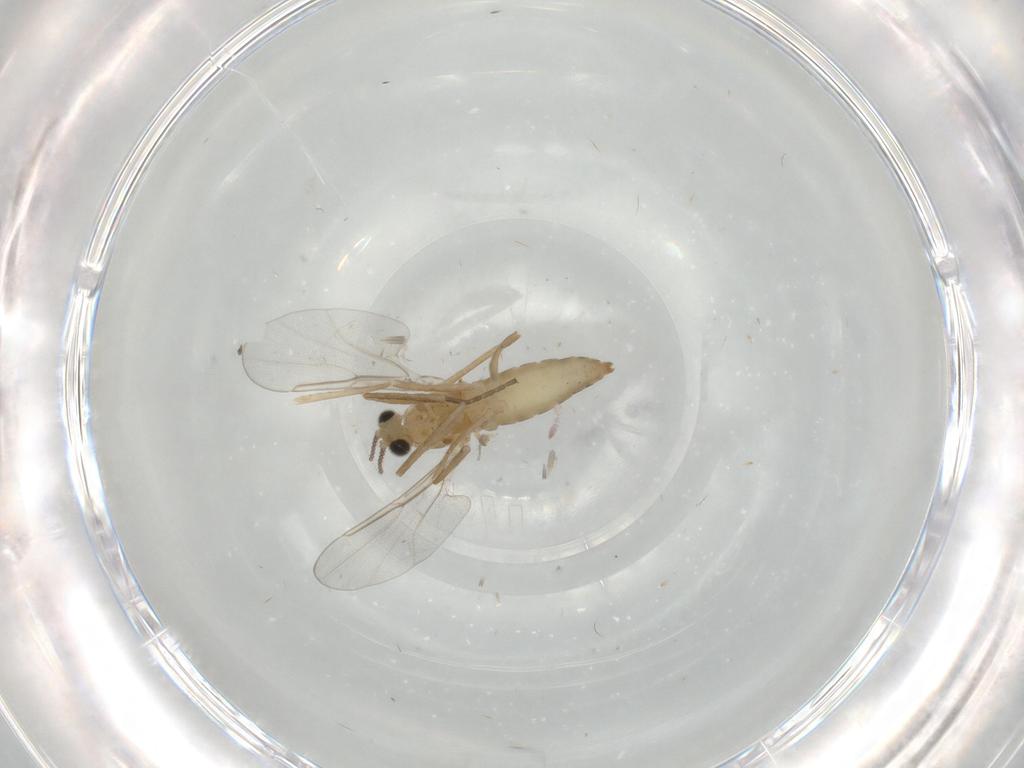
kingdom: Animalia
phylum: Arthropoda
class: Insecta
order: Diptera
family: Cecidomyiidae
